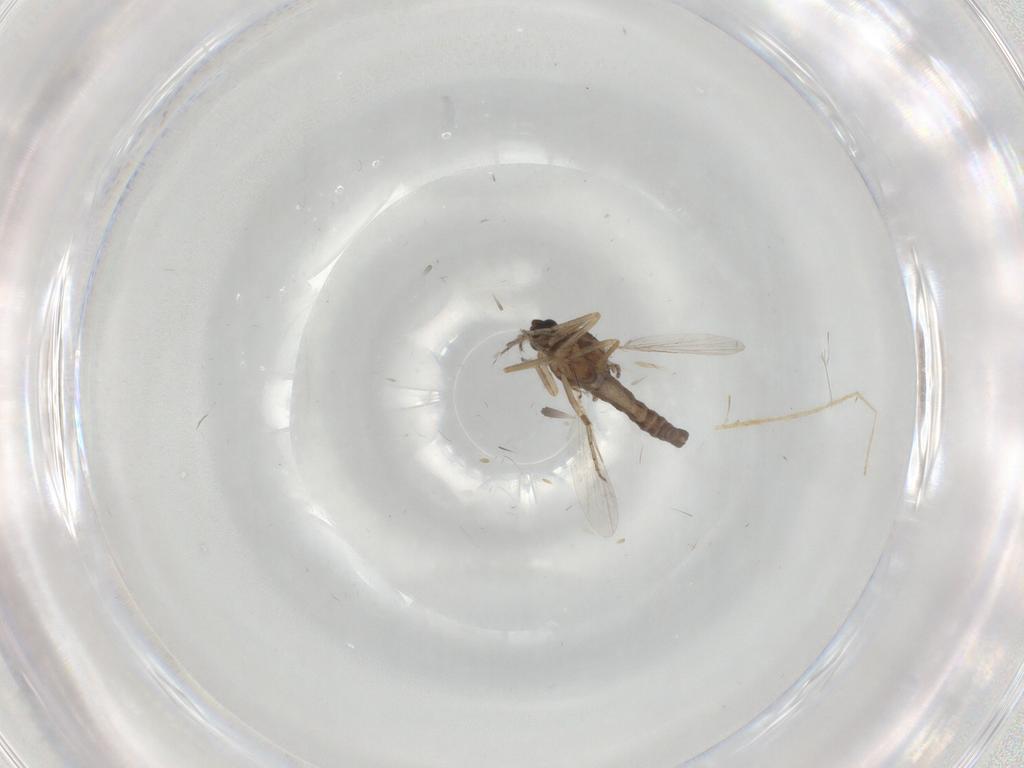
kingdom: Animalia
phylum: Arthropoda
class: Insecta
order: Diptera
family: Ceratopogonidae
